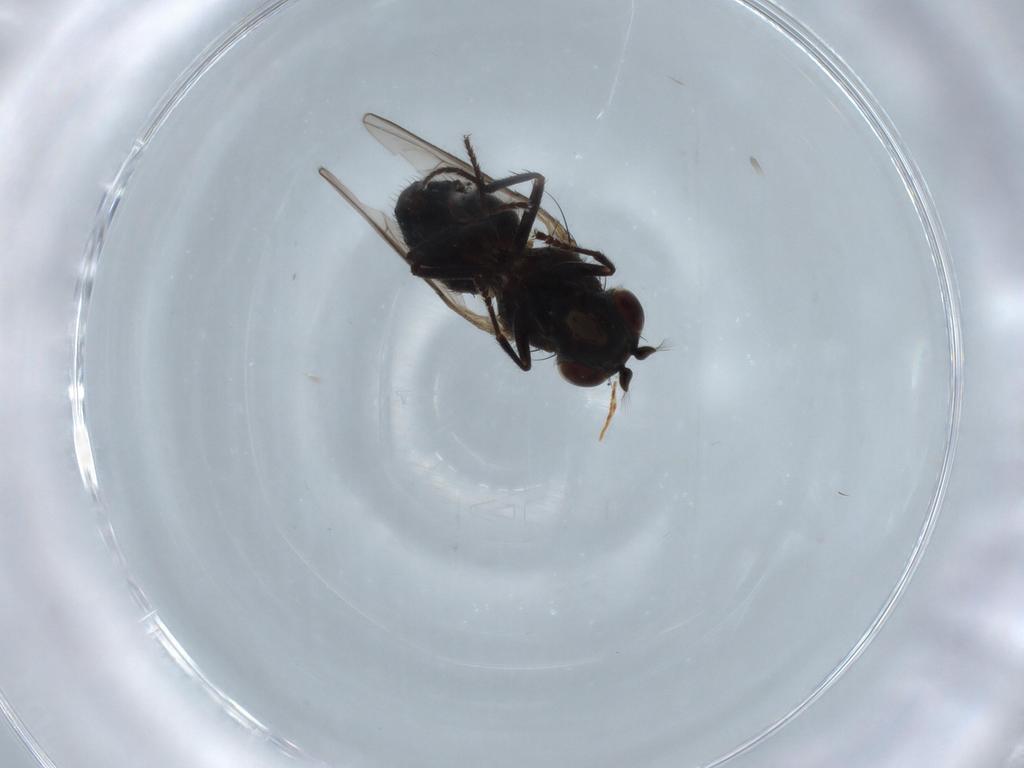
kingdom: Animalia
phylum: Arthropoda
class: Insecta
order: Diptera
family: Ephydridae
